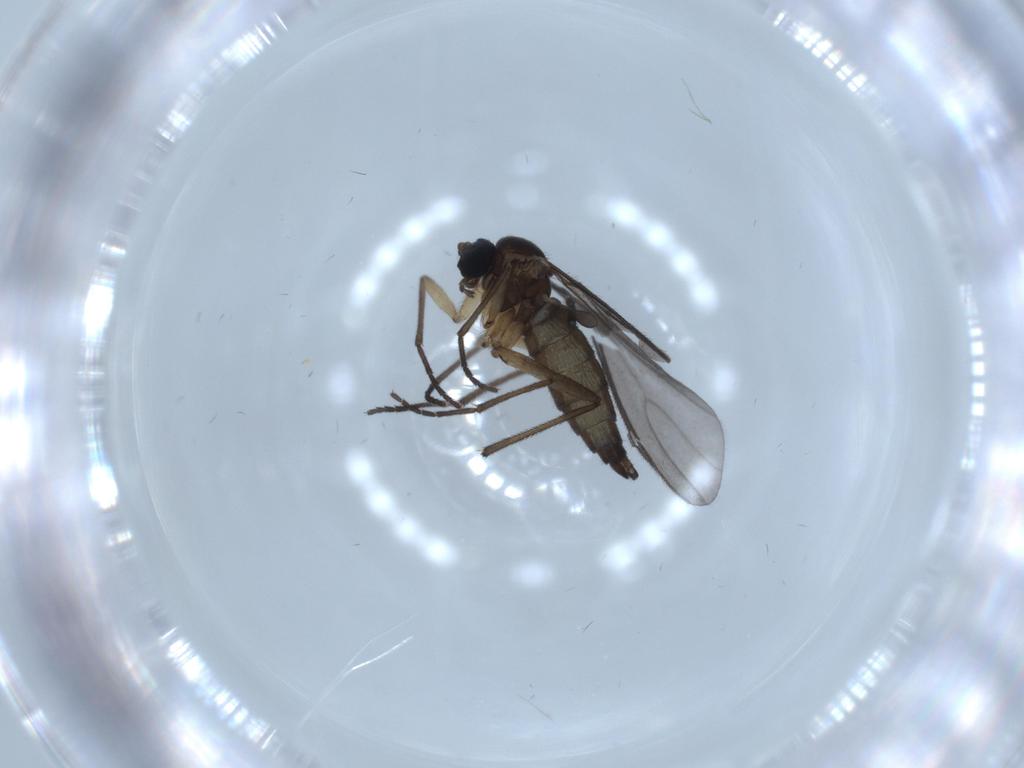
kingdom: Animalia
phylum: Arthropoda
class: Insecta
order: Diptera
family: Sciaridae
